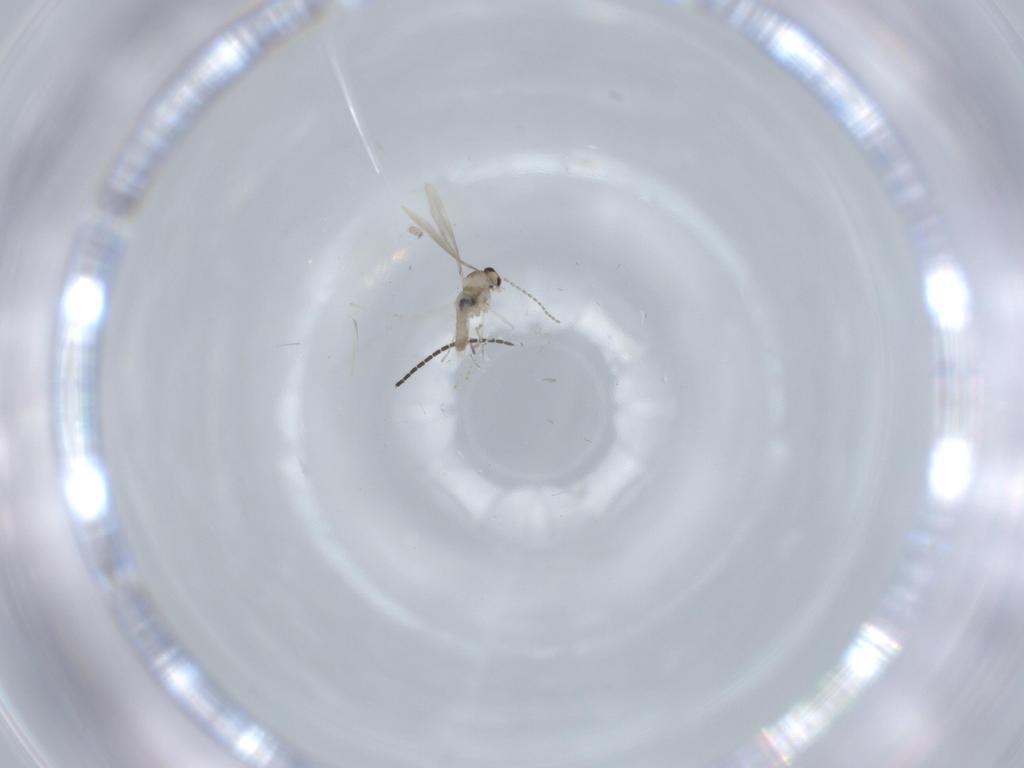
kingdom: Animalia
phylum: Arthropoda
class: Insecta
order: Diptera
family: Cecidomyiidae
